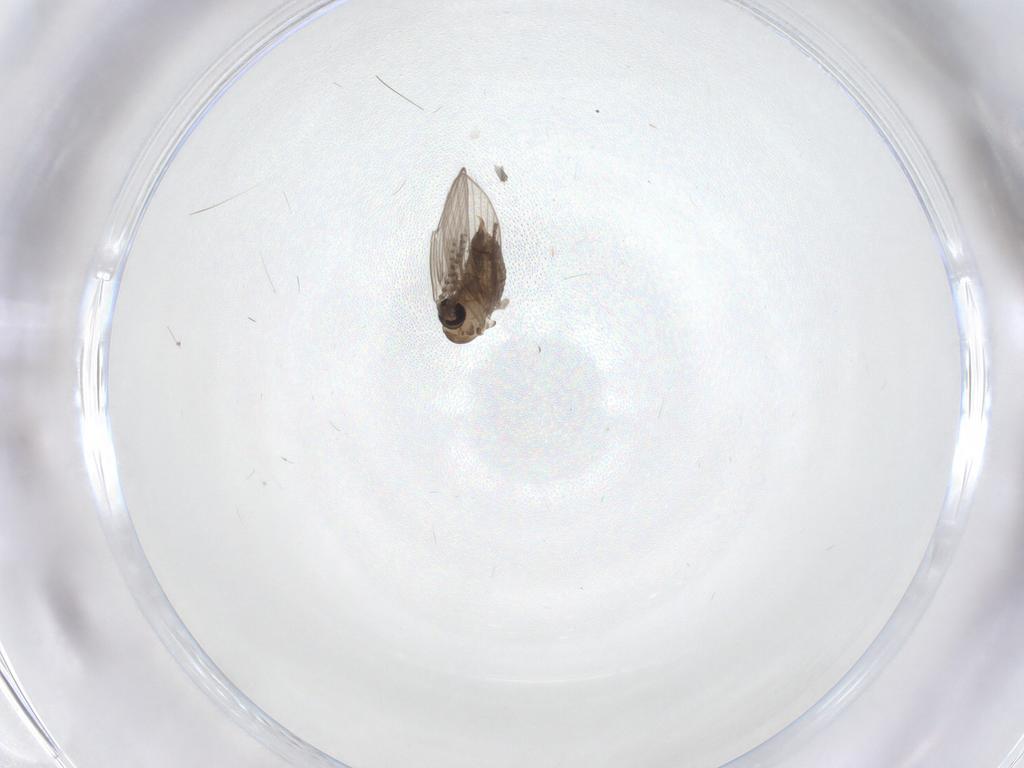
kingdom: Animalia
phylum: Arthropoda
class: Insecta
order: Diptera
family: Psychodidae
